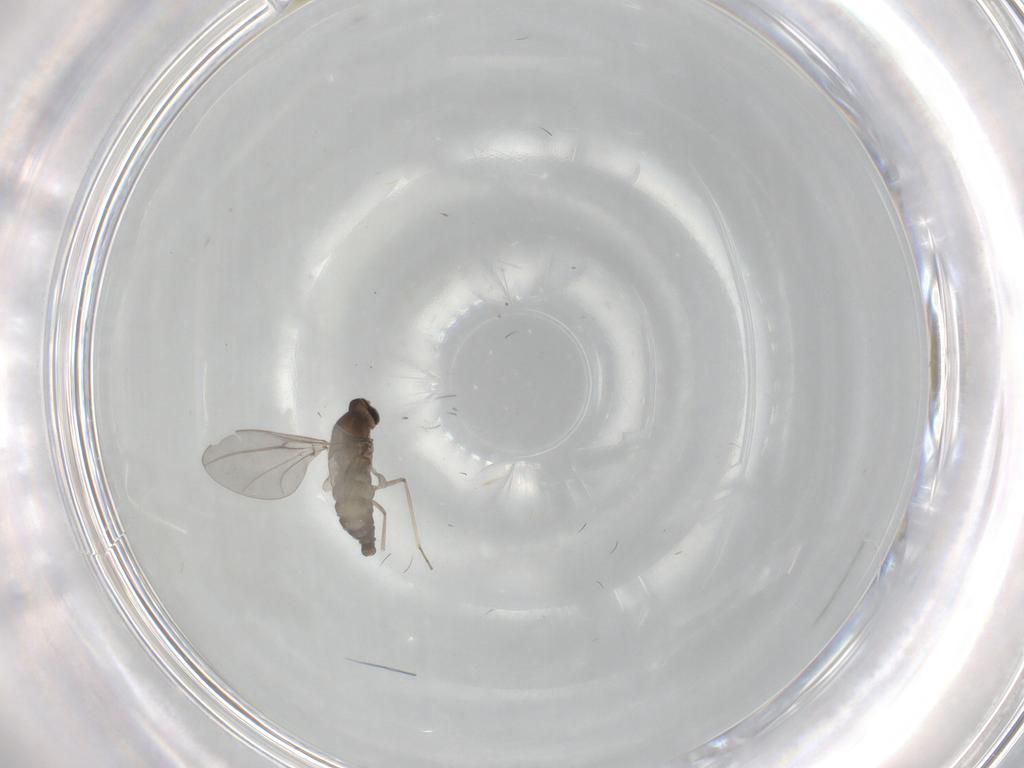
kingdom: Animalia
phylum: Arthropoda
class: Insecta
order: Diptera
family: Cecidomyiidae
